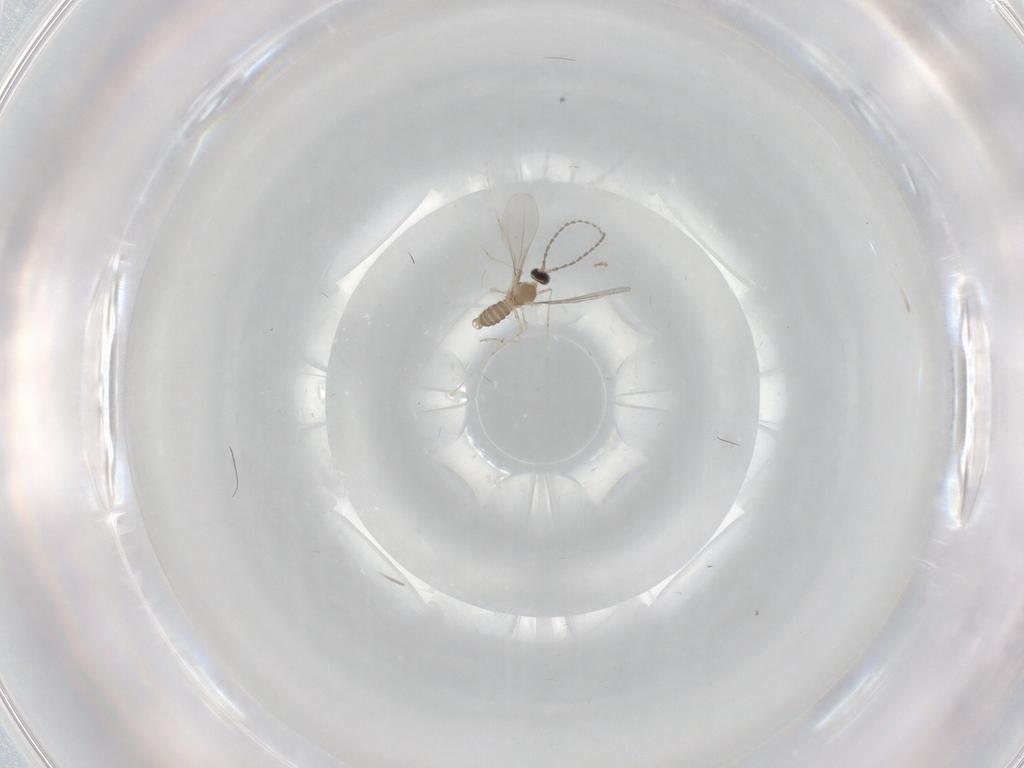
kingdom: Animalia
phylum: Arthropoda
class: Insecta
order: Diptera
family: Cecidomyiidae
